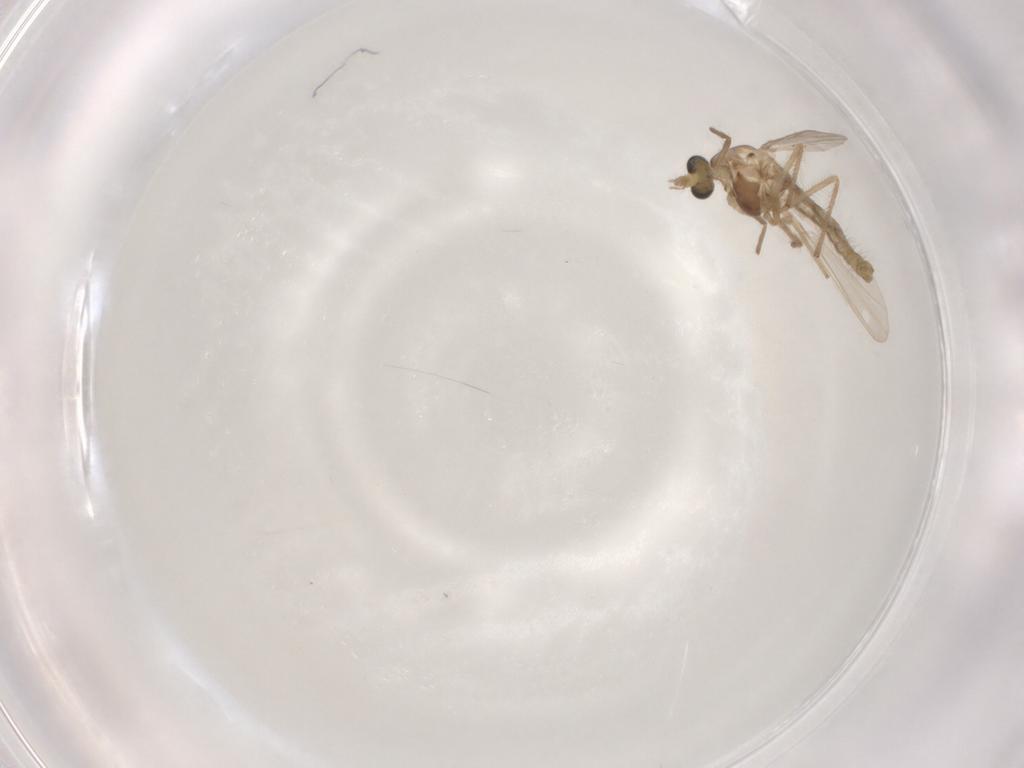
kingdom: Animalia
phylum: Arthropoda
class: Insecta
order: Diptera
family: Chironomidae
